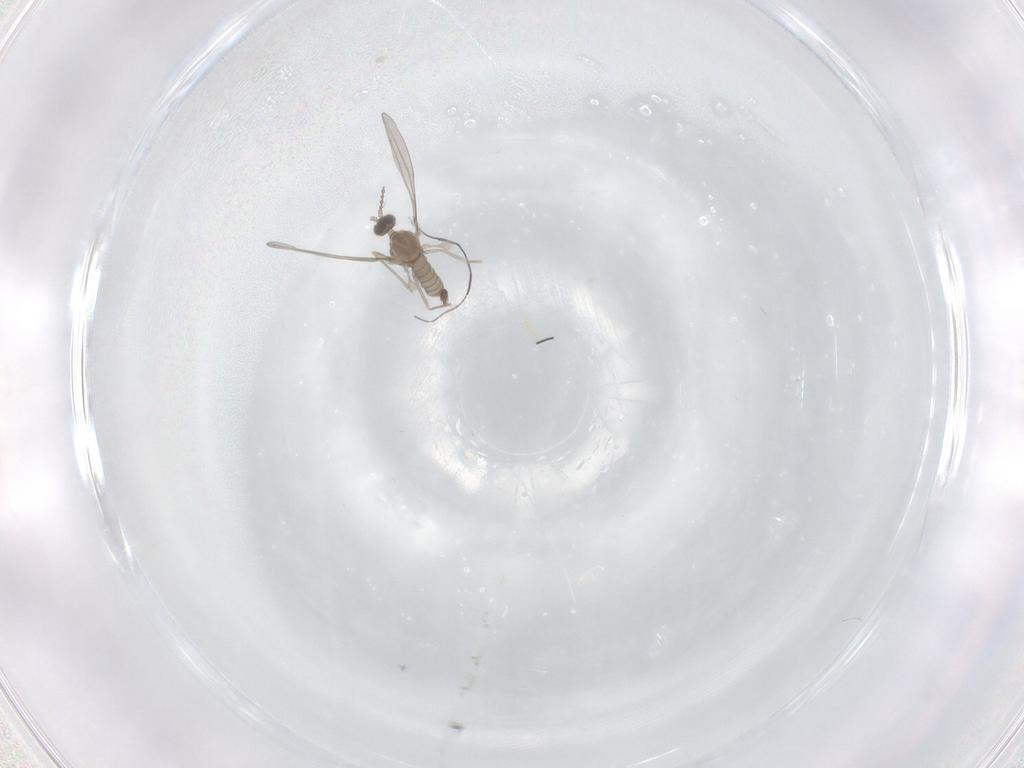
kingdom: Animalia
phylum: Arthropoda
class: Insecta
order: Diptera
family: Cecidomyiidae
